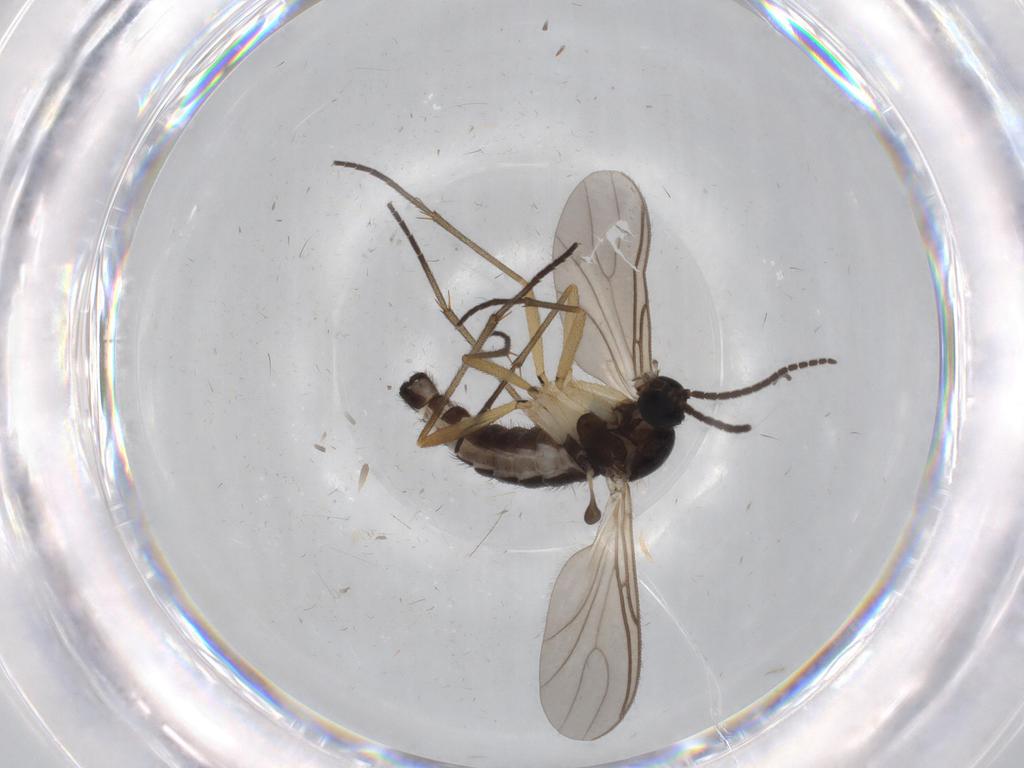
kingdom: Animalia
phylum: Arthropoda
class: Insecta
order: Diptera
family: Sciaridae
